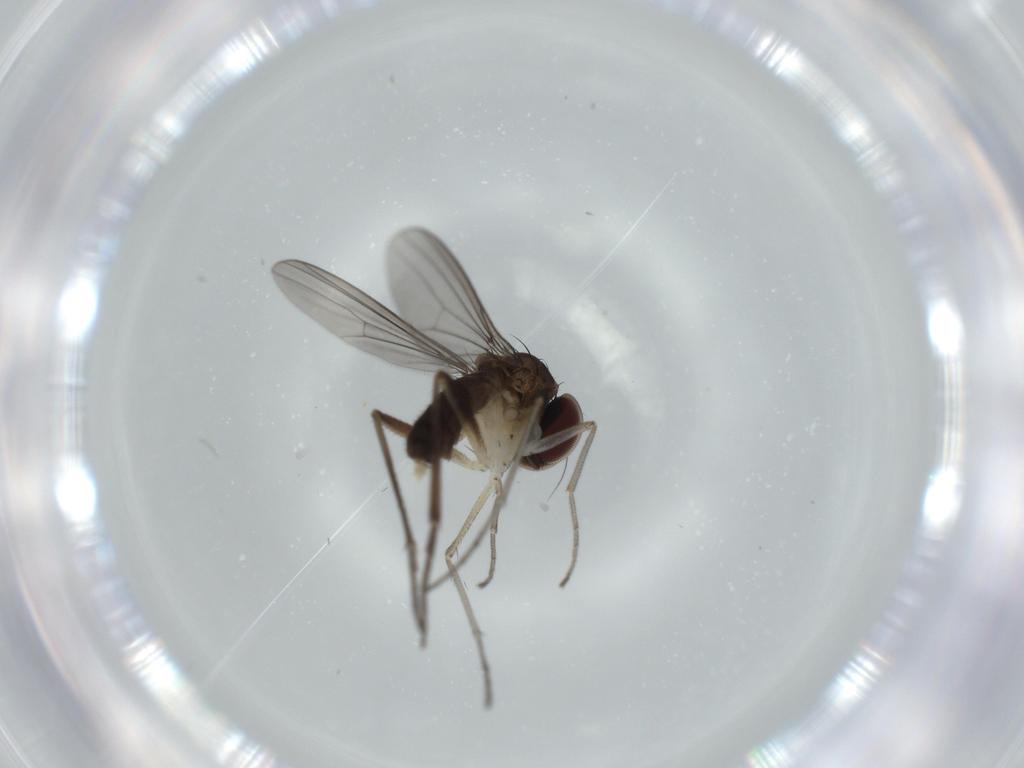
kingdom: Animalia
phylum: Arthropoda
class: Insecta
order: Diptera
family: Dolichopodidae
